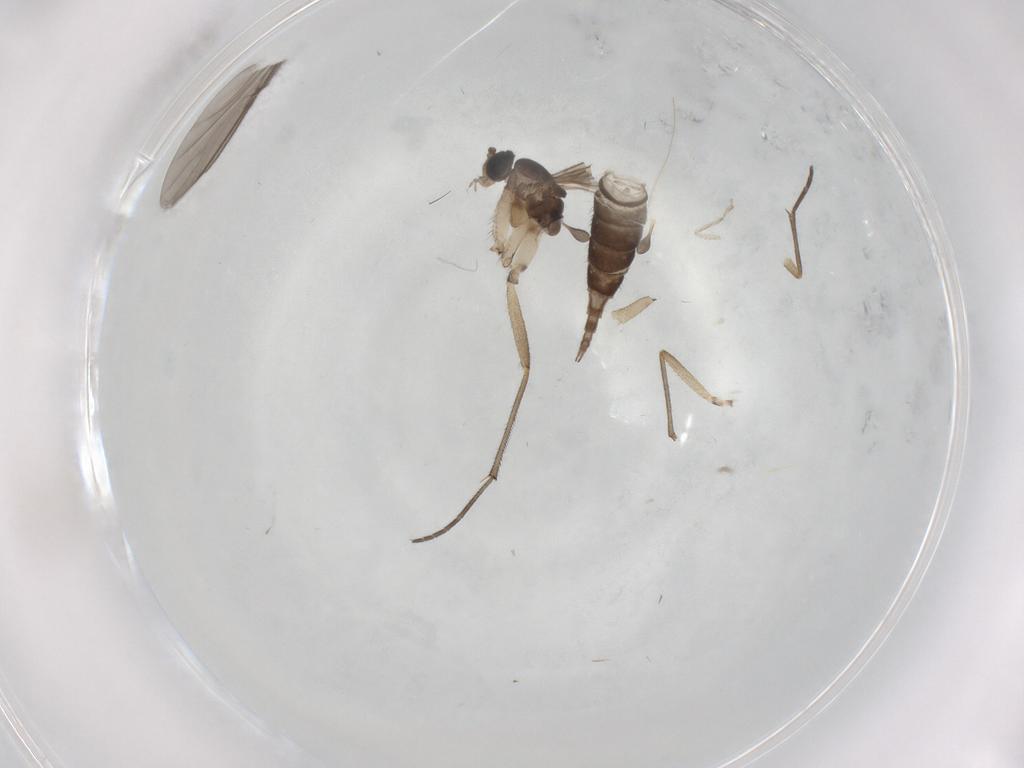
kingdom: Animalia
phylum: Arthropoda
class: Insecta
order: Diptera
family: Sciaridae
